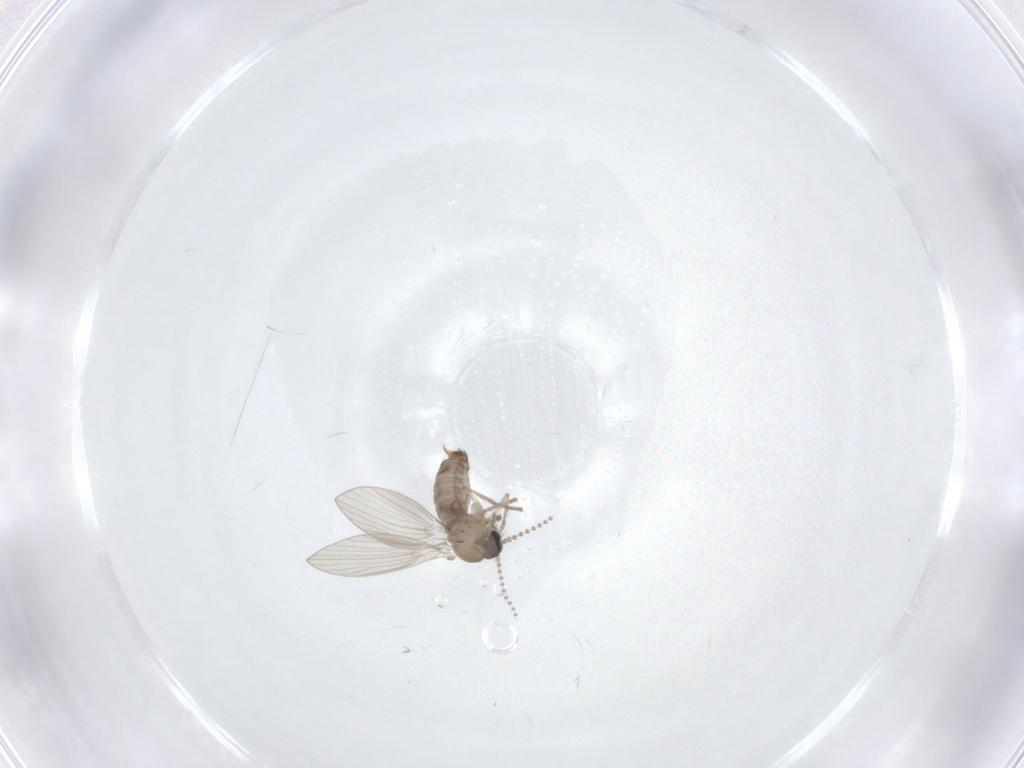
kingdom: Animalia
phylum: Arthropoda
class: Insecta
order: Diptera
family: Psychodidae
